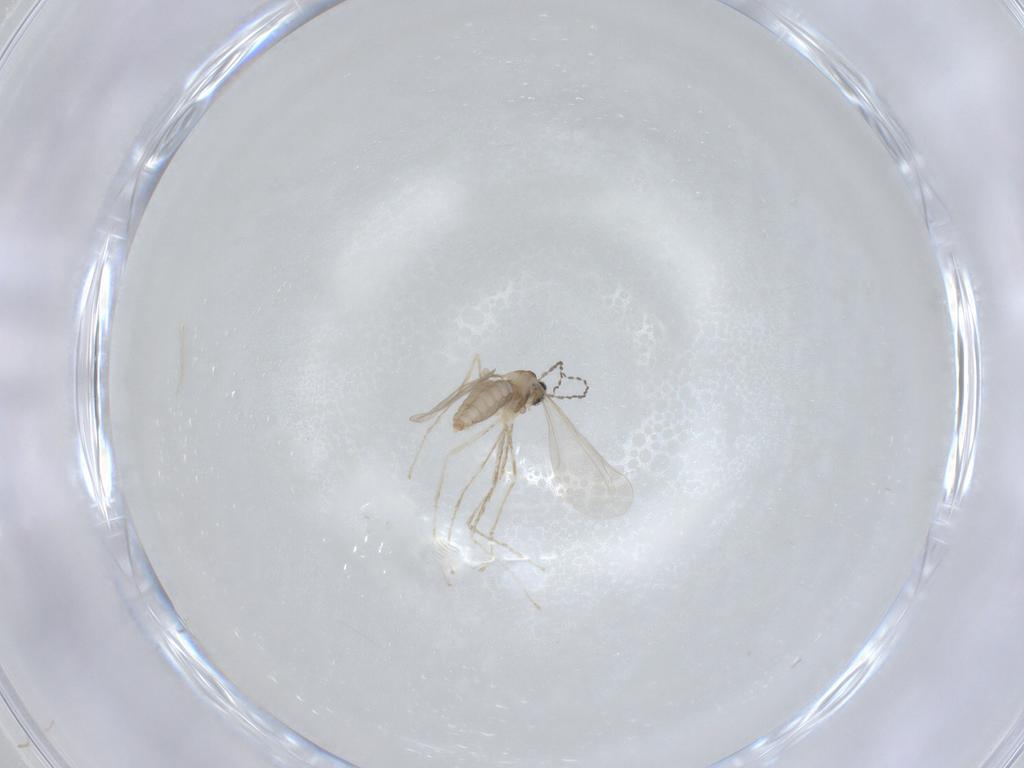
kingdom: Animalia
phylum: Arthropoda
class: Insecta
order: Diptera
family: Cecidomyiidae
